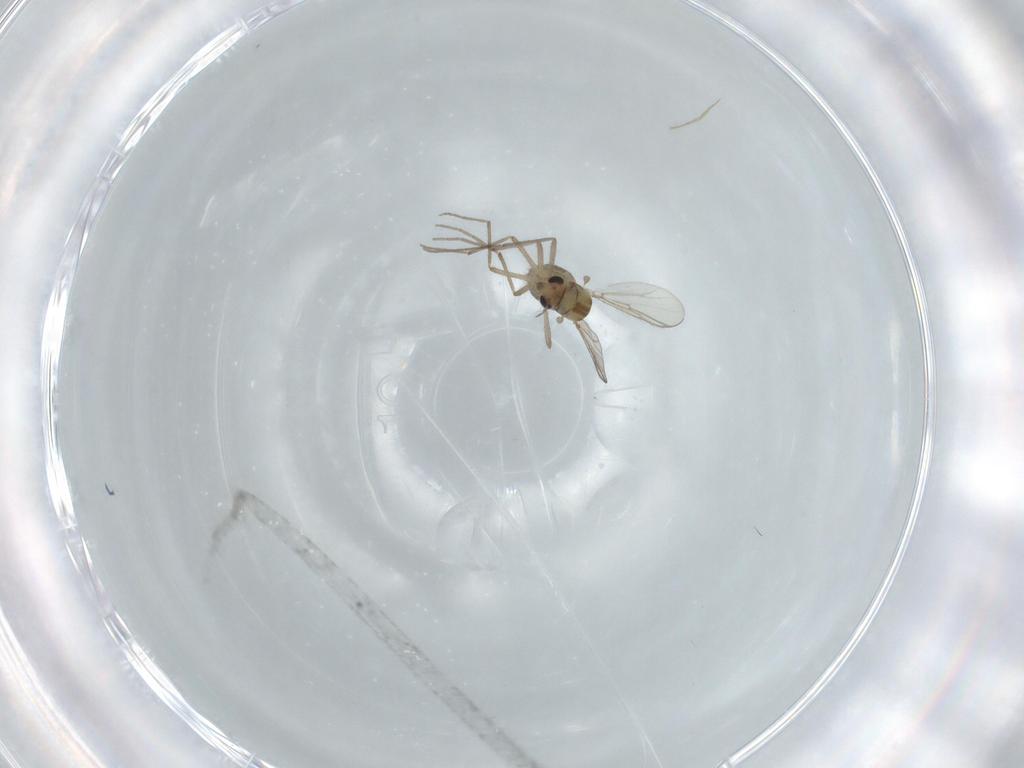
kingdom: Animalia
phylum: Arthropoda
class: Insecta
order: Diptera
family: Chironomidae
